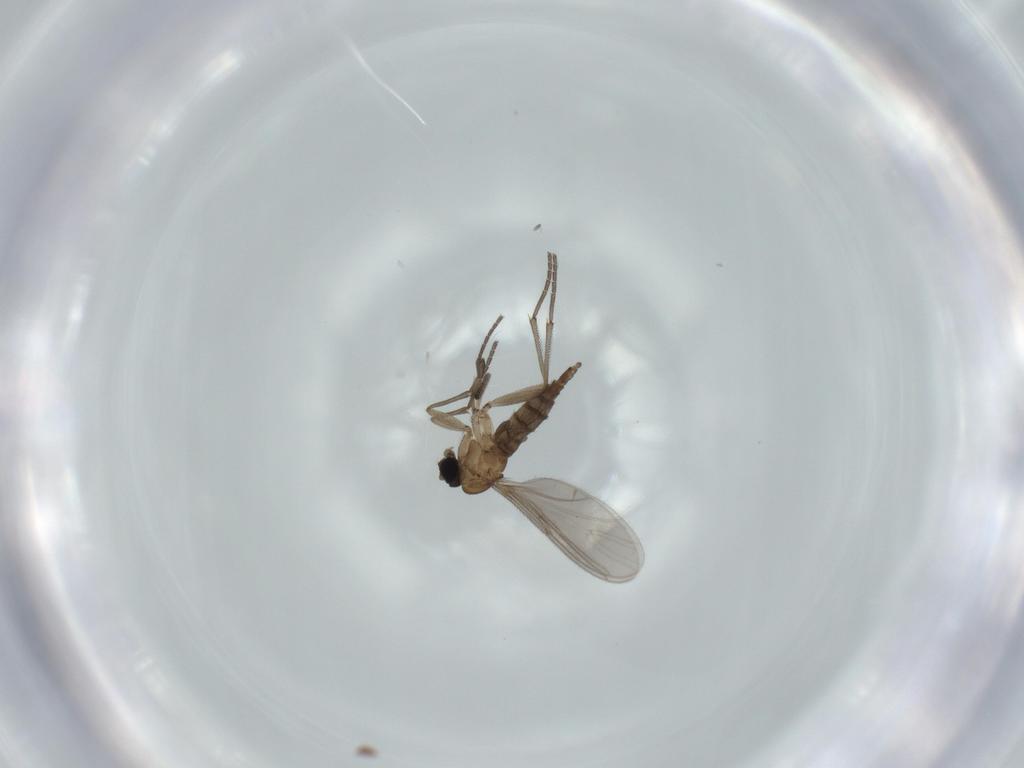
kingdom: Animalia
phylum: Arthropoda
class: Insecta
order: Diptera
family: Sciaridae
